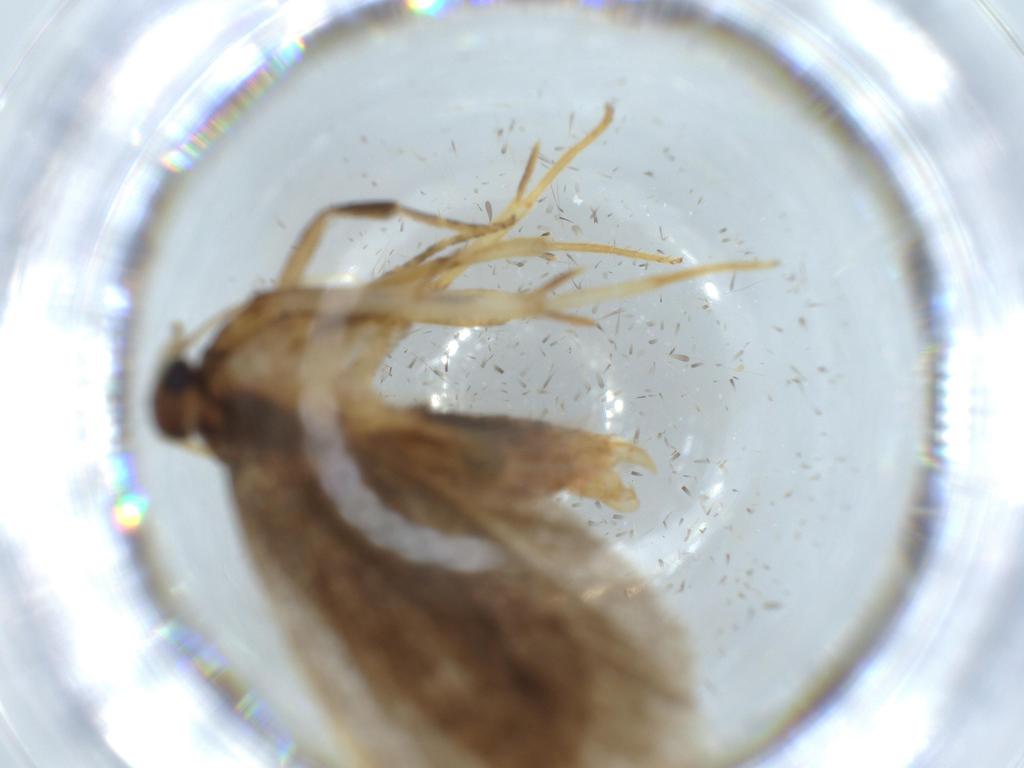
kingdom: Animalia
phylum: Arthropoda
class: Insecta
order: Lepidoptera
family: Lecithoceridae
